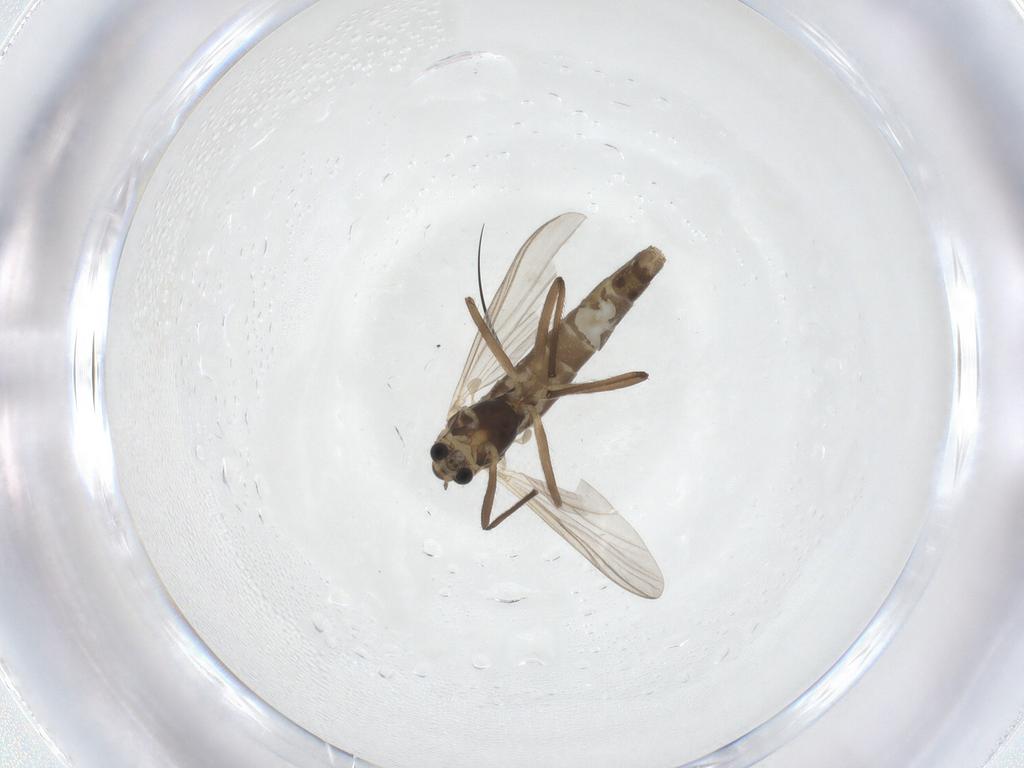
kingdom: Animalia
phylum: Arthropoda
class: Insecta
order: Diptera
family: Chironomidae
